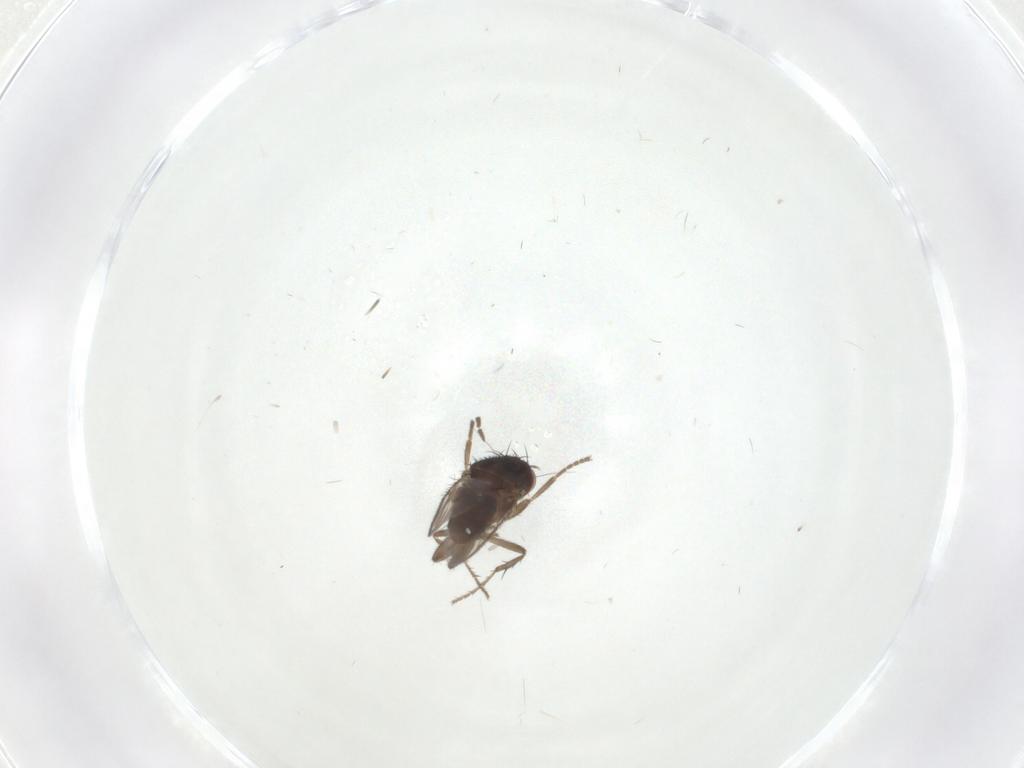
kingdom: Animalia
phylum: Arthropoda
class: Insecta
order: Diptera
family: Sphaeroceridae
